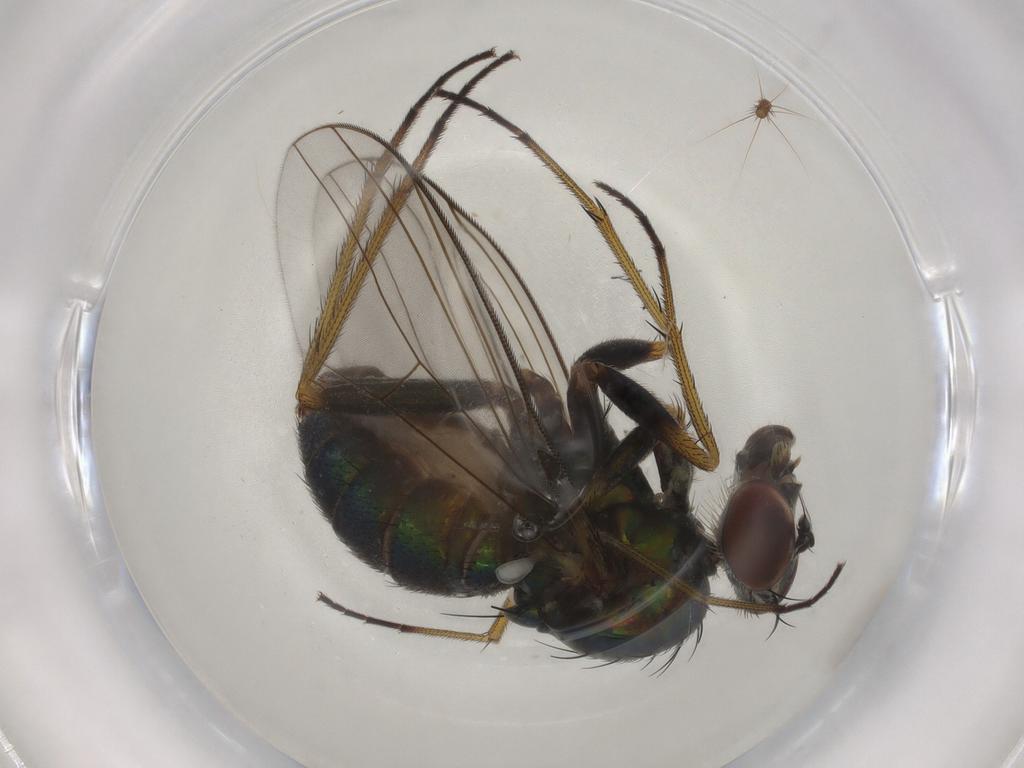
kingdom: Animalia
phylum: Arthropoda
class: Insecta
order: Diptera
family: Dolichopodidae
